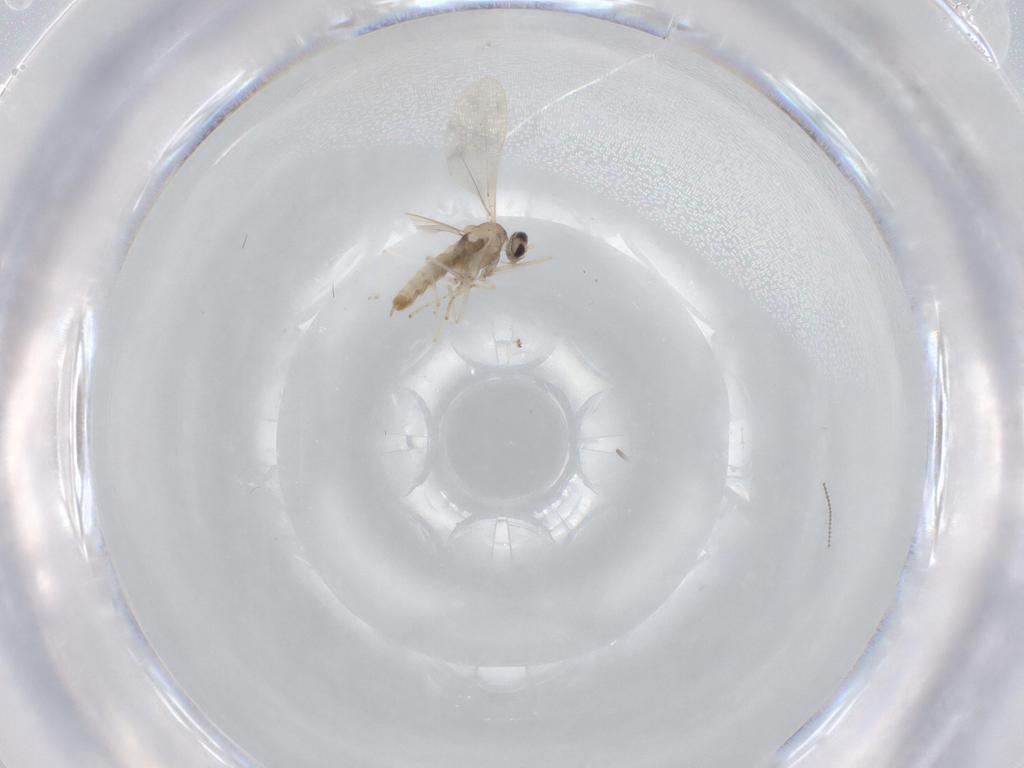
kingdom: Animalia
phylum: Arthropoda
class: Insecta
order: Diptera
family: Cecidomyiidae
